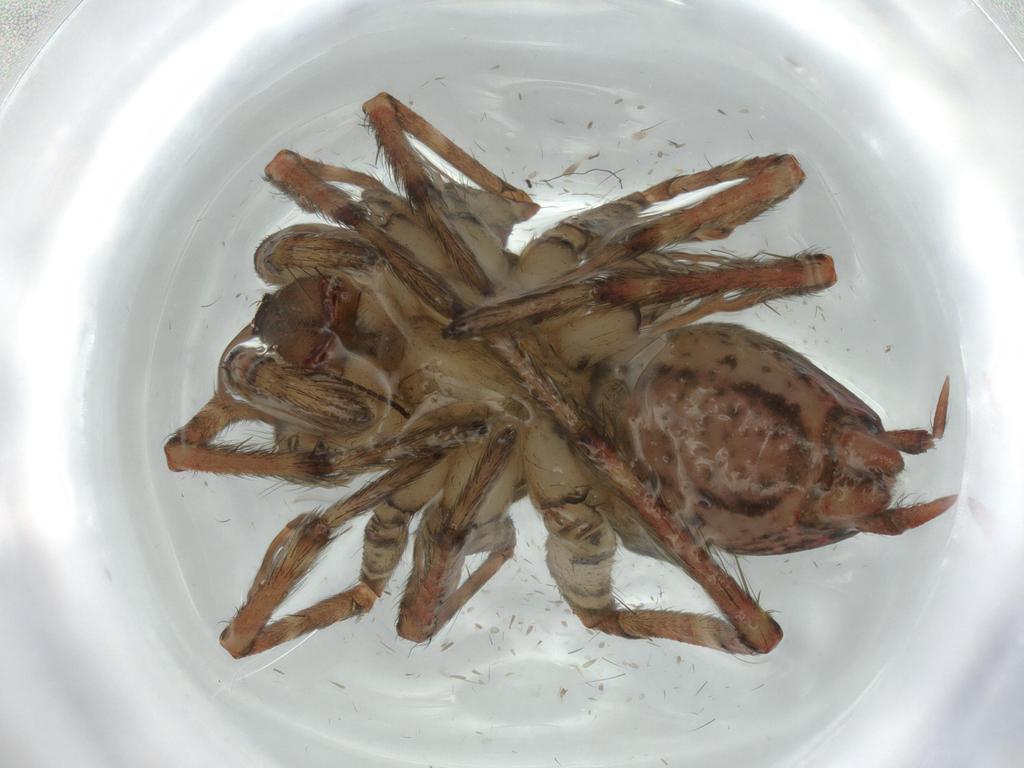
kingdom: Animalia
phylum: Arthropoda
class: Arachnida
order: Araneae
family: Agelenidae
